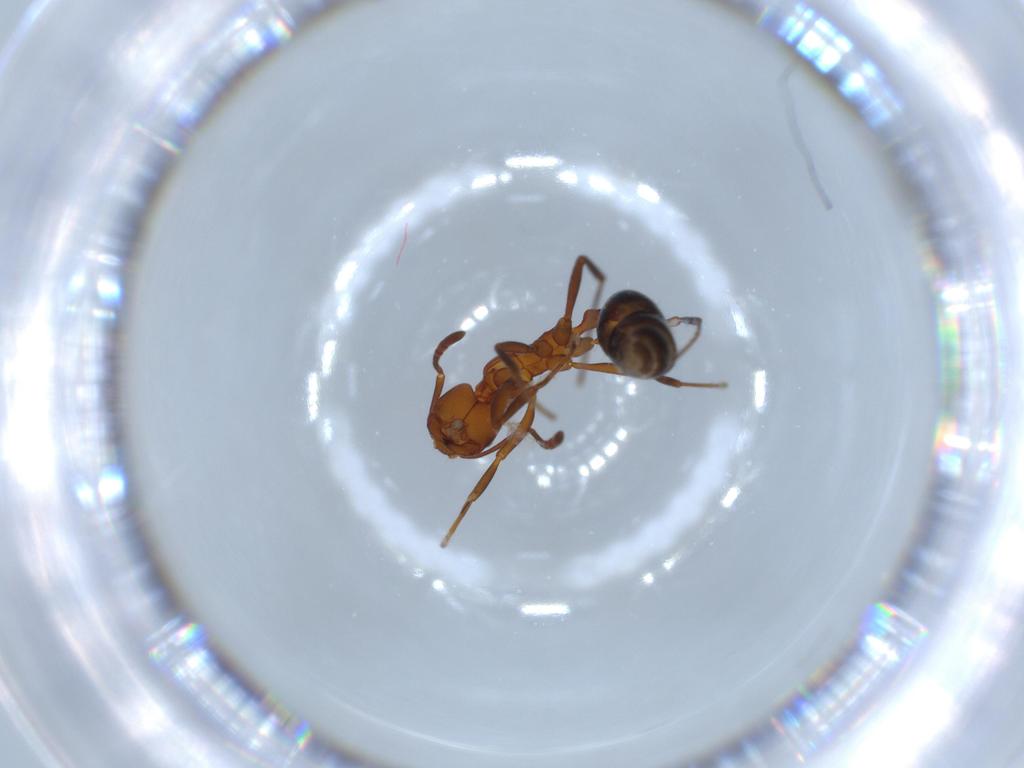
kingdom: Animalia
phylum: Arthropoda
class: Insecta
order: Hymenoptera
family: Formicidae
